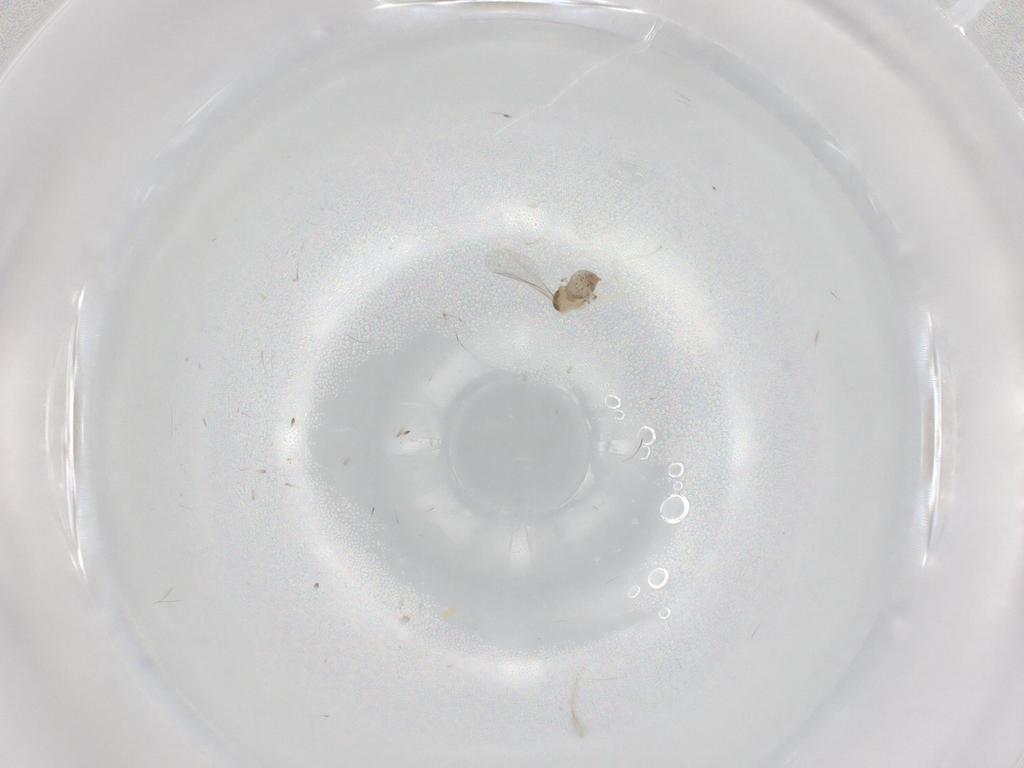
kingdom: Animalia
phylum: Arthropoda
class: Insecta
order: Diptera
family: Cecidomyiidae
